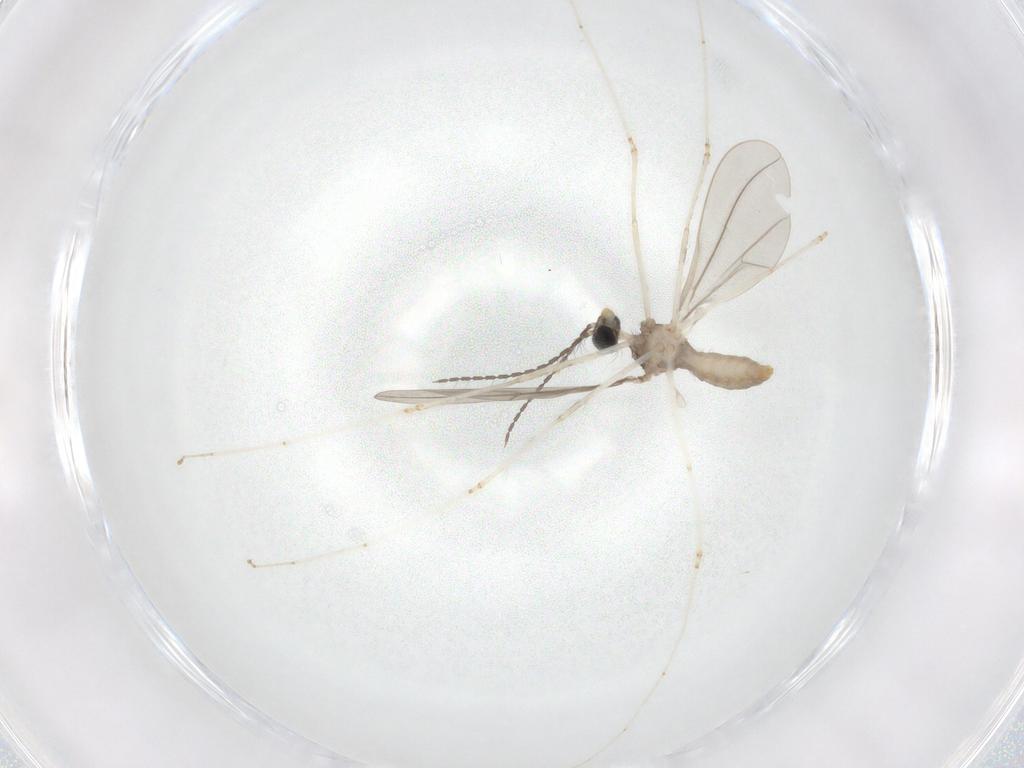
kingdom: Animalia
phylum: Arthropoda
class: Insecta
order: Diptera
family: Cecidomyiidae
